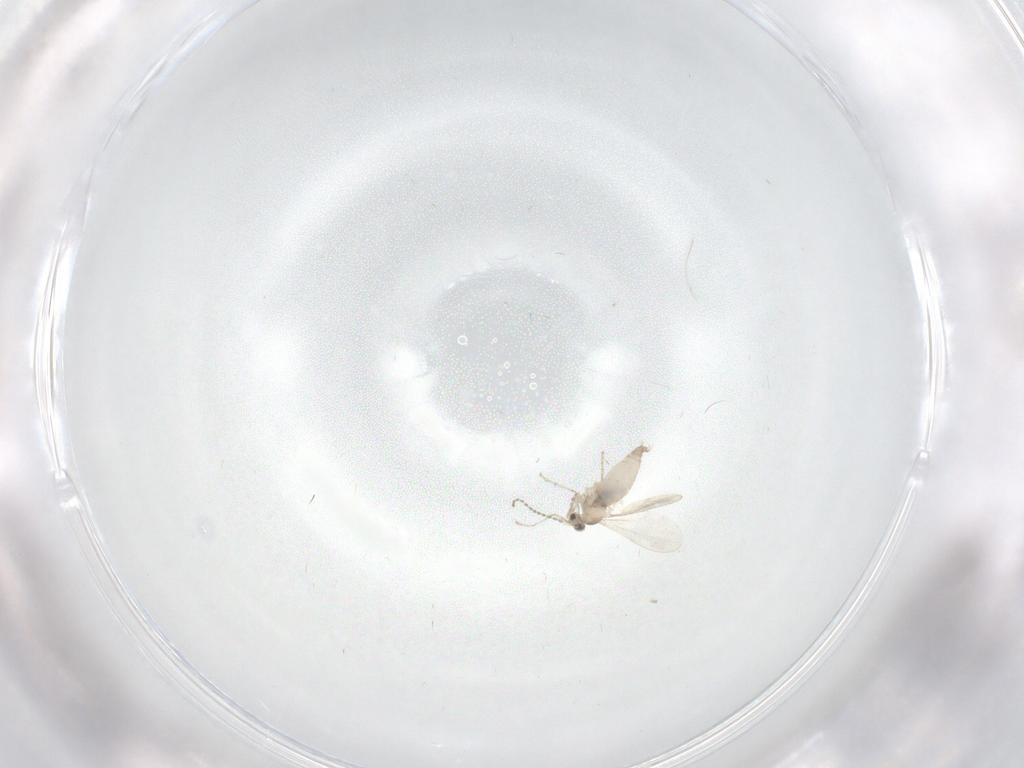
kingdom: Animalia
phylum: Arthropoda
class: Insecta
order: Diptera
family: Cecidomyiidae
